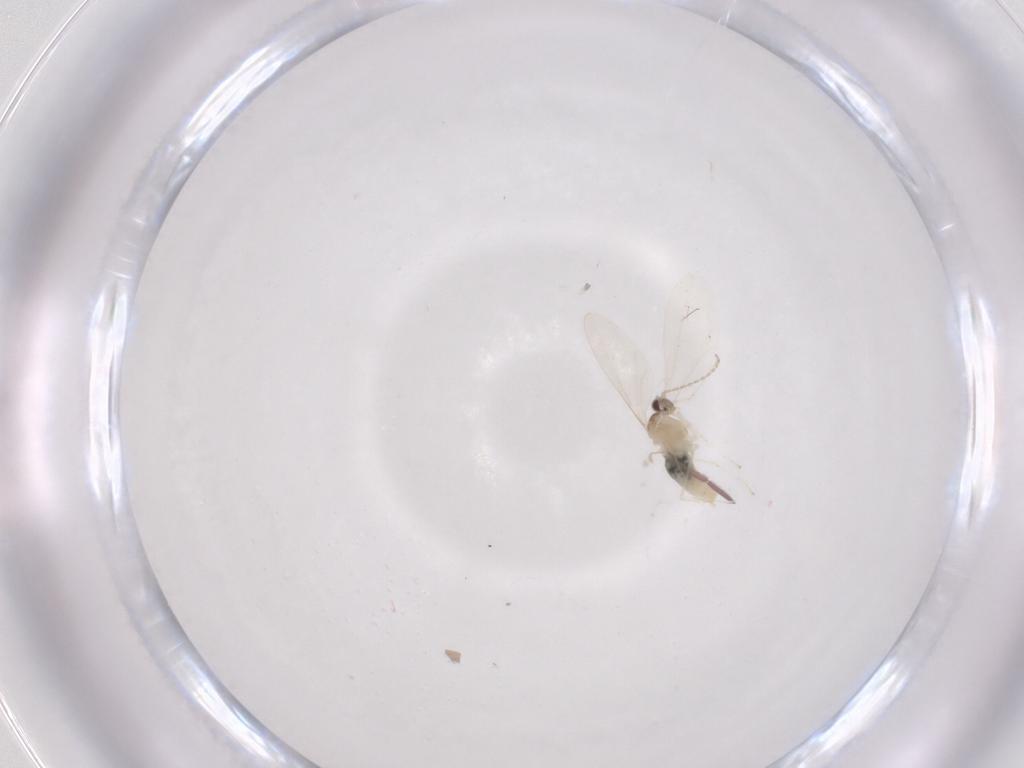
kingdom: Animalia
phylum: Arthropoda
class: Insecta
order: Diptera
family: Cecidomyiidae
